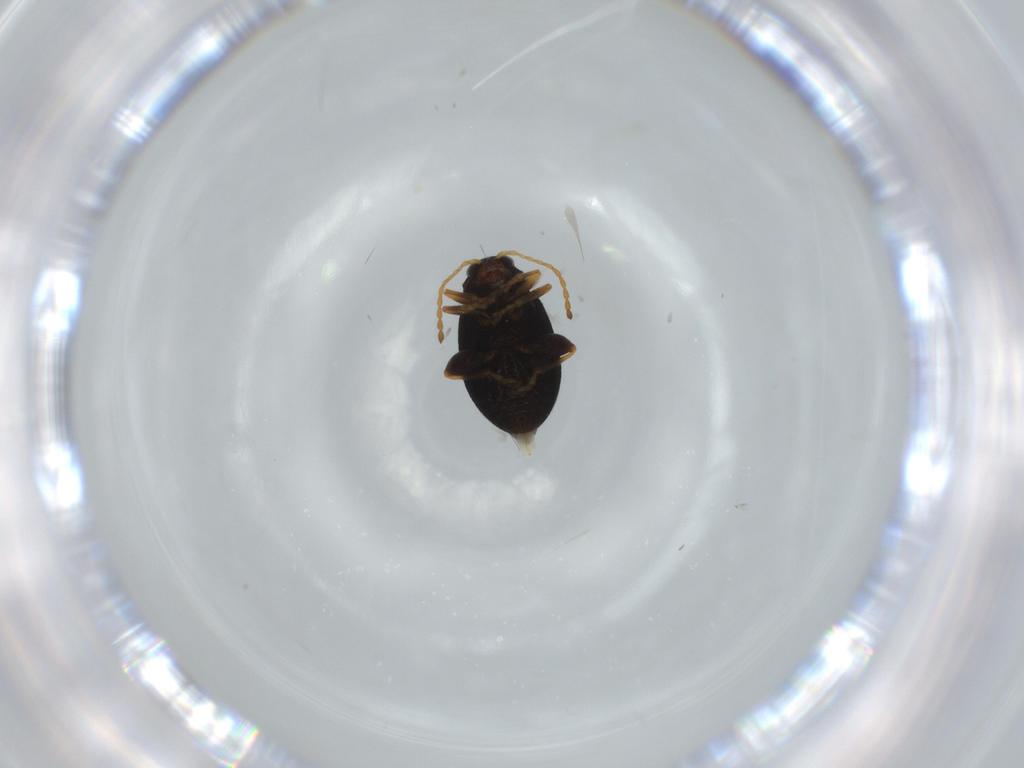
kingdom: Animalia
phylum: Arthropoda
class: Insecta
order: Coleoptera
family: Chrysomelidae
